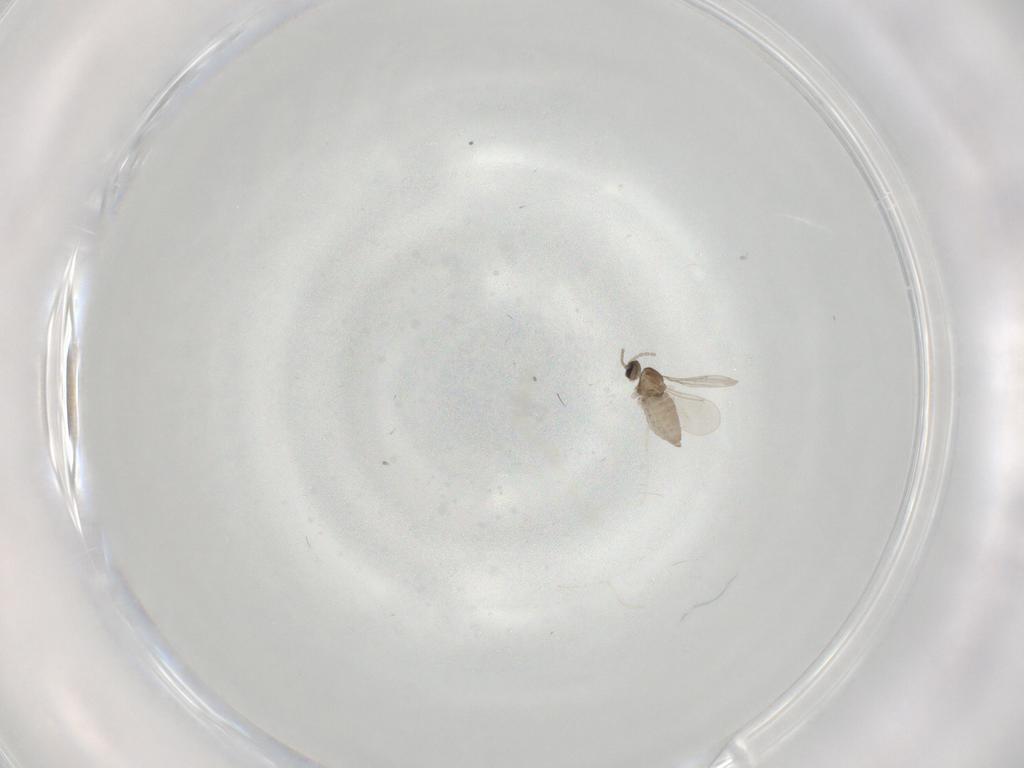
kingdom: Animalia
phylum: Arthropoda
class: Insecta
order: Diptera
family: Cecidomyiidae
